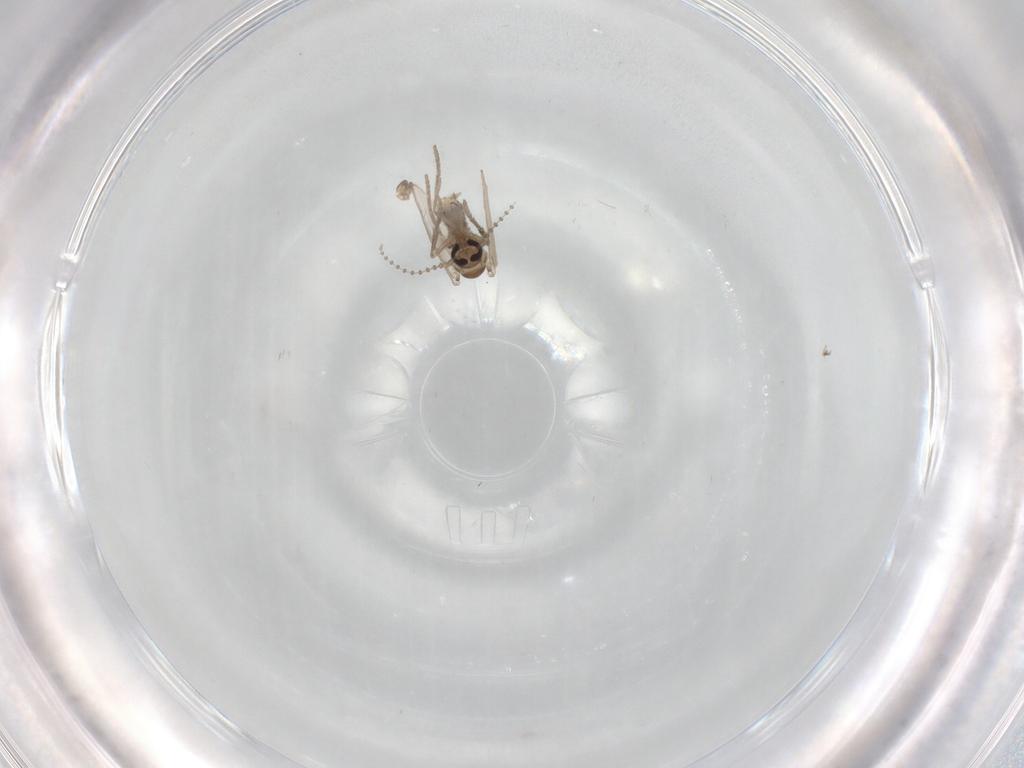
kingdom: Animalia
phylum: Arthropoda
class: Insecta
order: Diptera
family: Psychodidae
